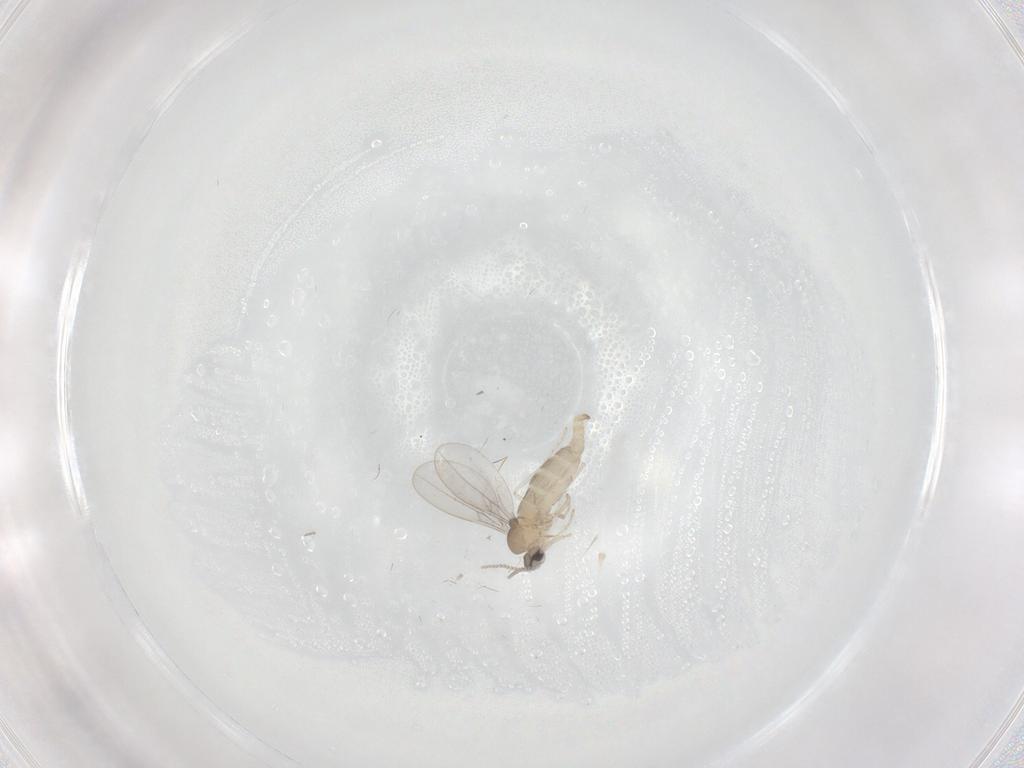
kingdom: Animalia
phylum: Arthropoda
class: Insecta
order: Diptera
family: Cecidomyiidae
